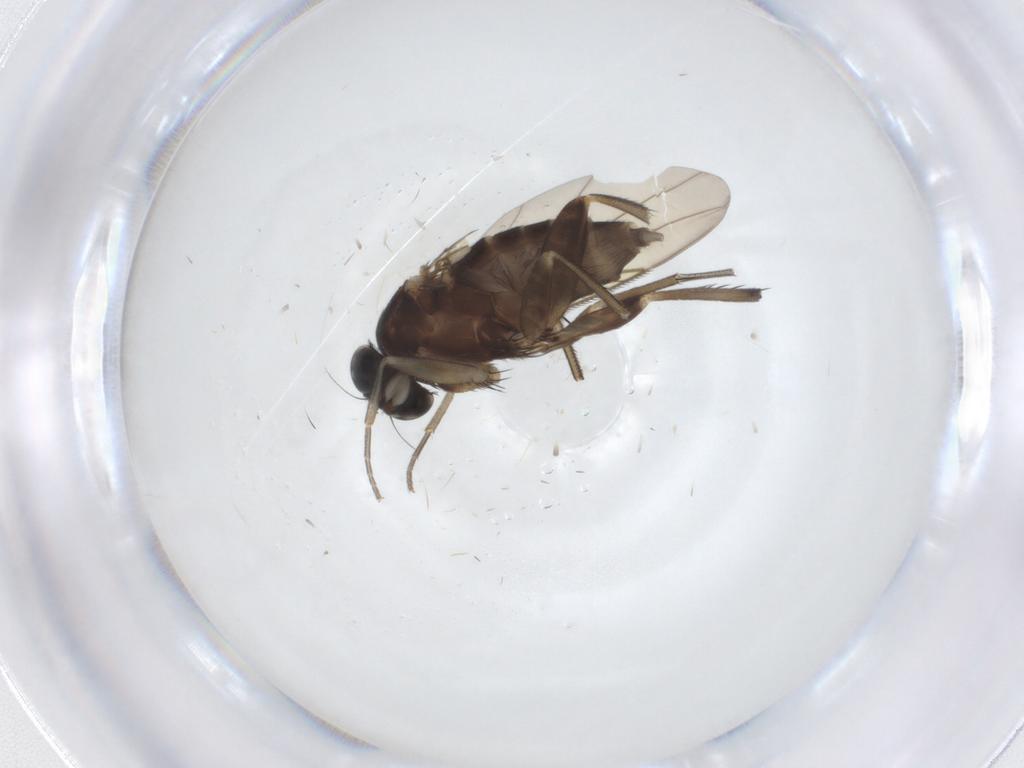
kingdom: Animalia
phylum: Arthropoda
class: Insecta
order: Diptera
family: Phoridae
